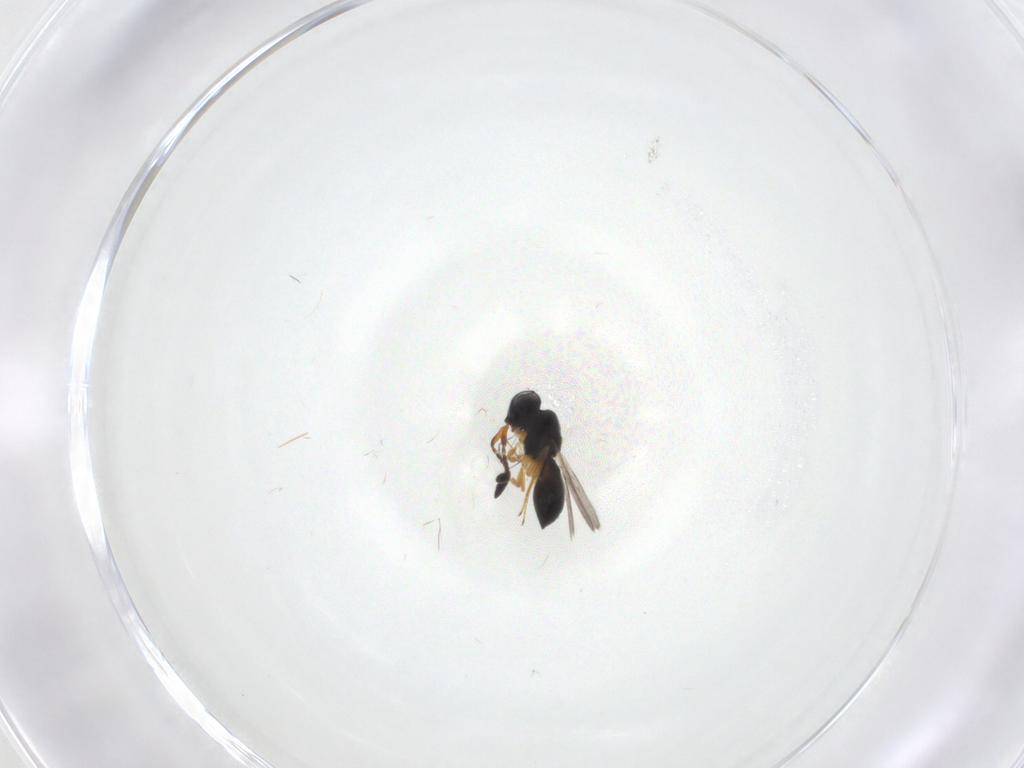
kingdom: Animalia
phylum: Arthropoda
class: Insecta
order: Hymenoptera
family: Scelionidae
